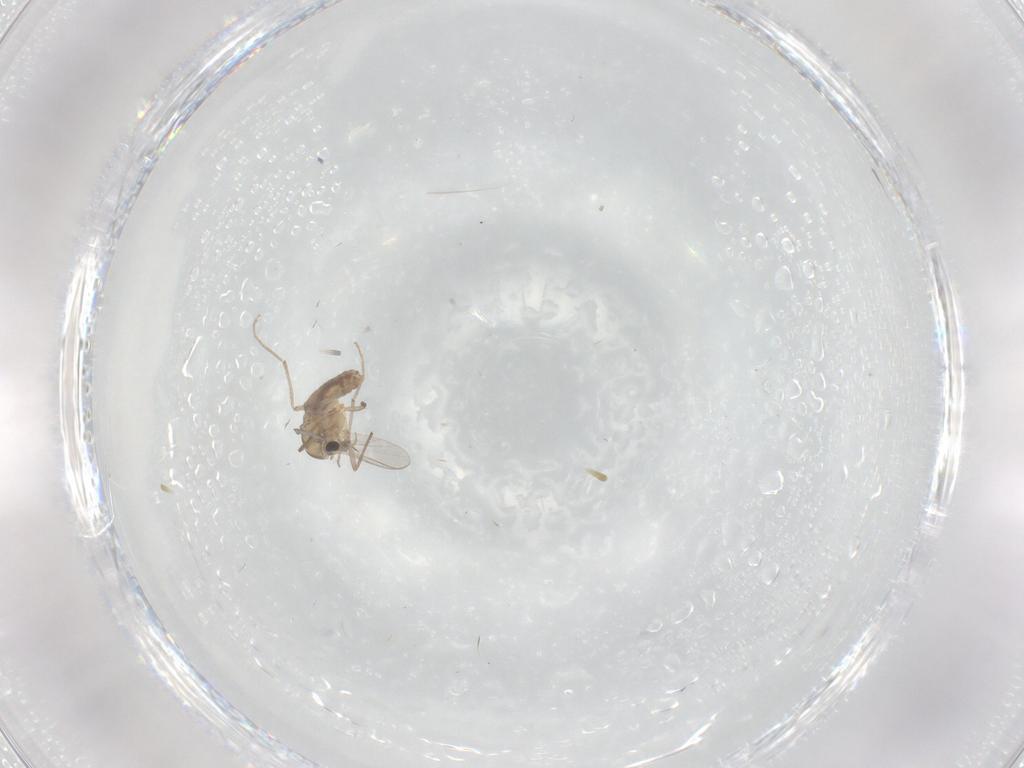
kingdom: Animalia
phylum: Arthropoda
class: Insecta
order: Diptera
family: Chironomidae
